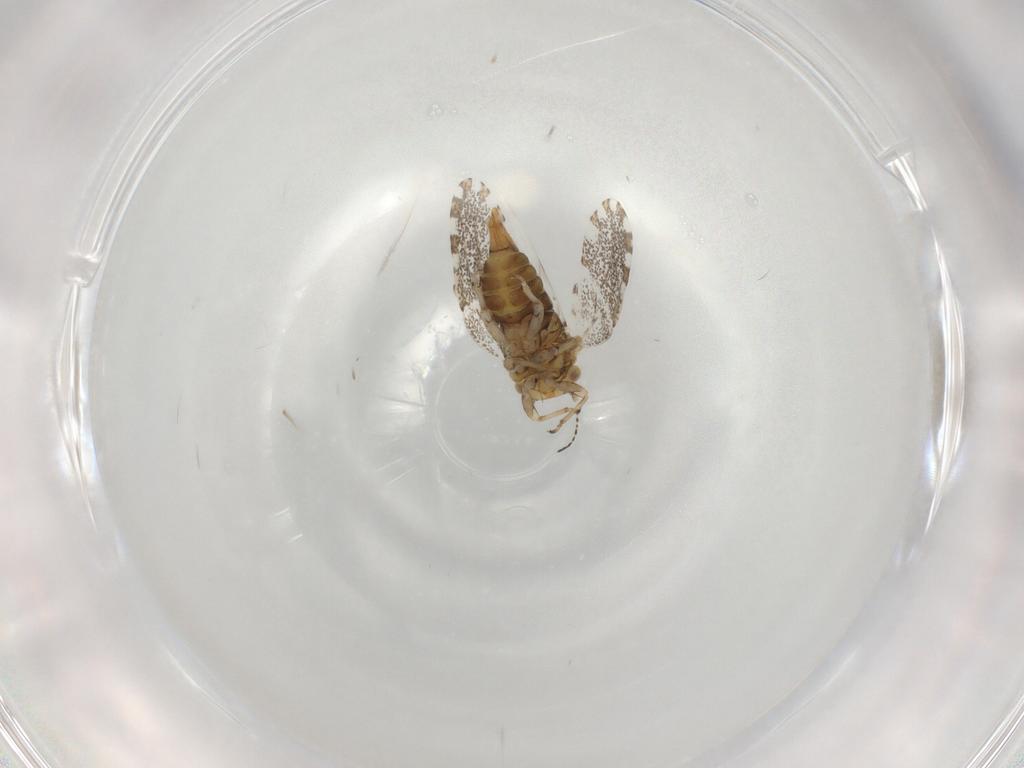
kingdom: Animalia
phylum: Arthropoda
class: Insecta
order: Hemiptera
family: Psylloidea_incertae_sedis
